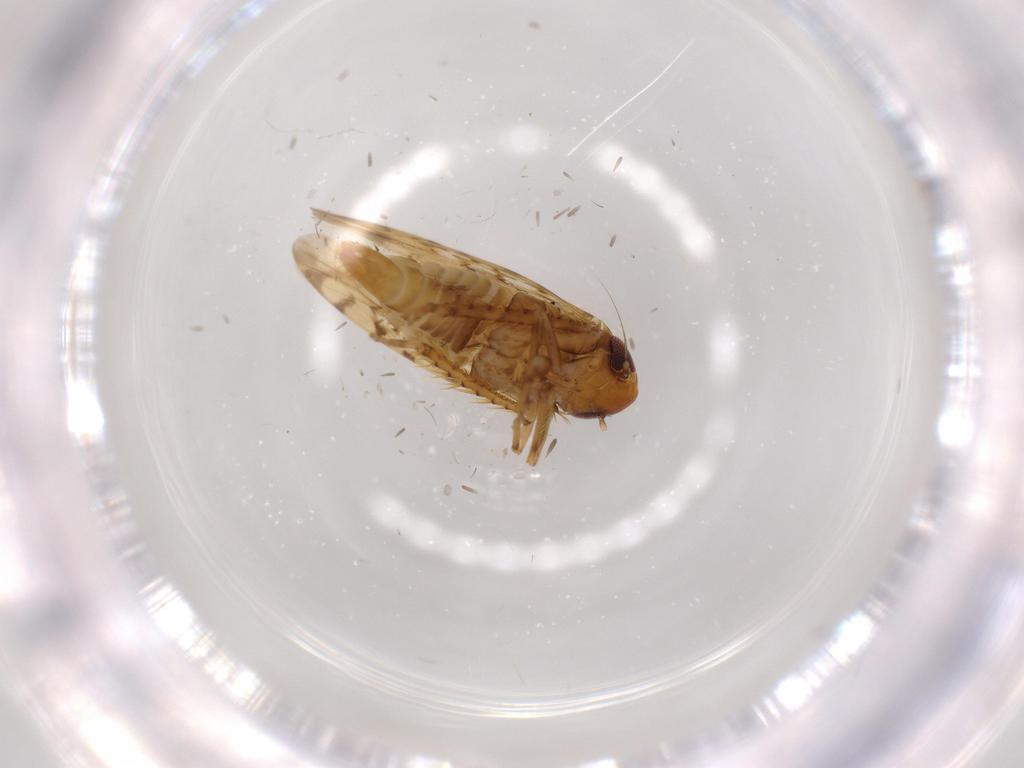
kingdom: Animalia
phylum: Arthropoda
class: Insecta
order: Hemiptera
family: Cicadellidae
